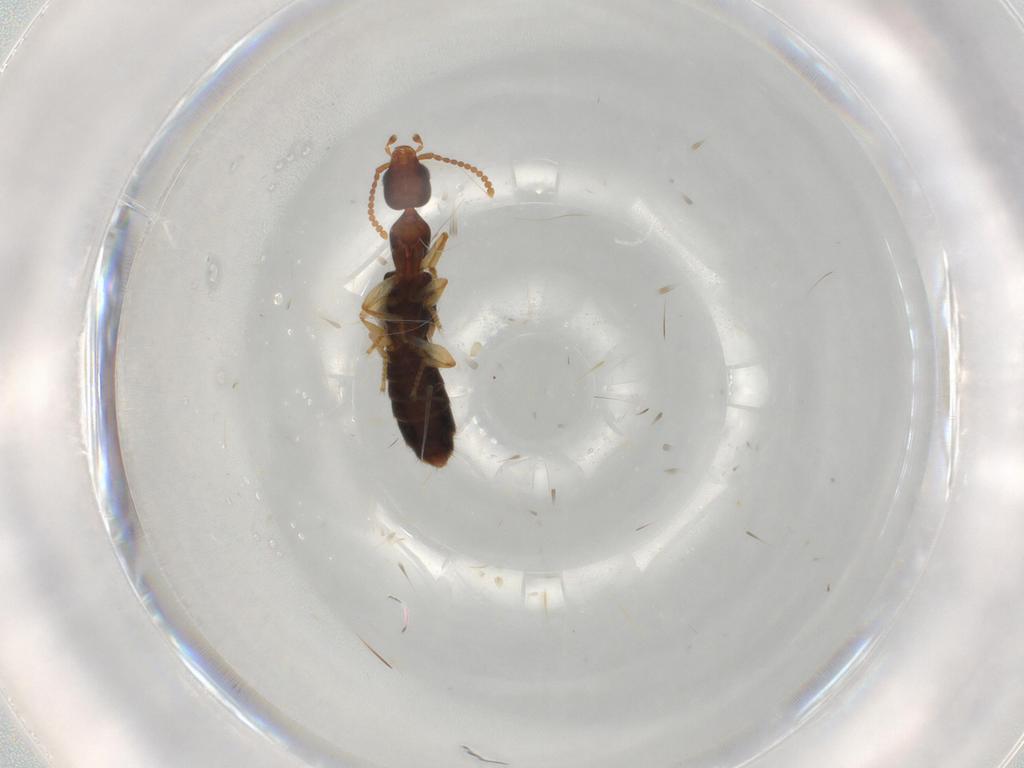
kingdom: Animalia
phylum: Arthropoda
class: Insecta
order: Coleoptera
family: Staphylinidae
